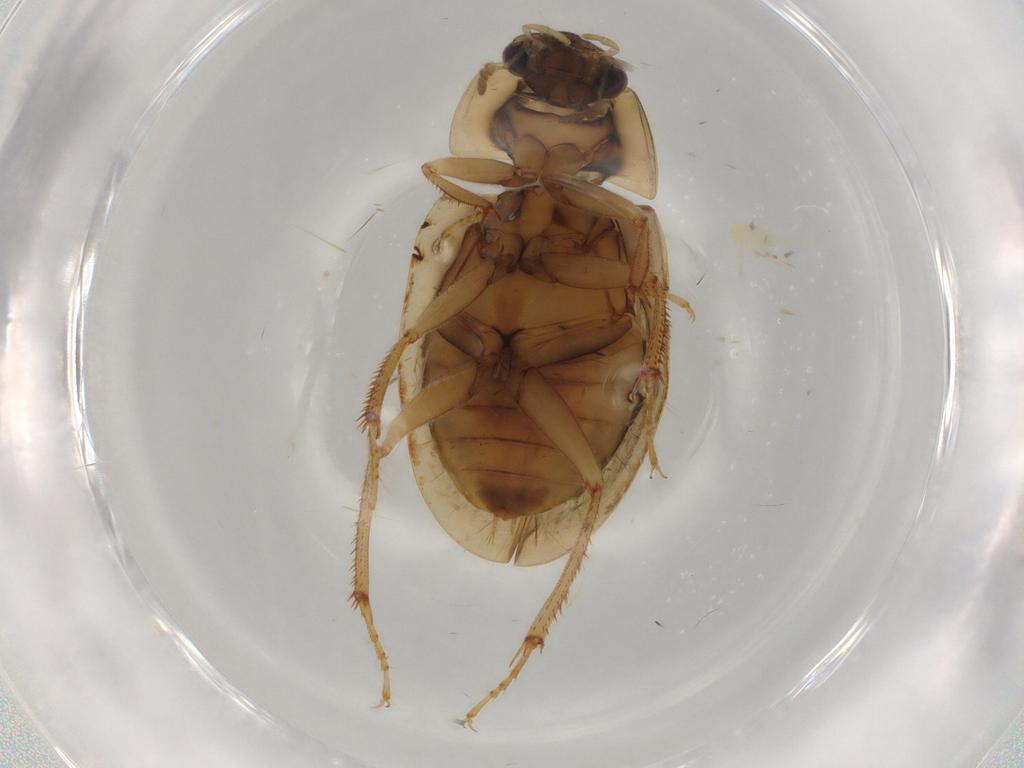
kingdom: Animalia
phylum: Arthropoda
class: Insecta
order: Coleoptera
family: Hydrophilidae
